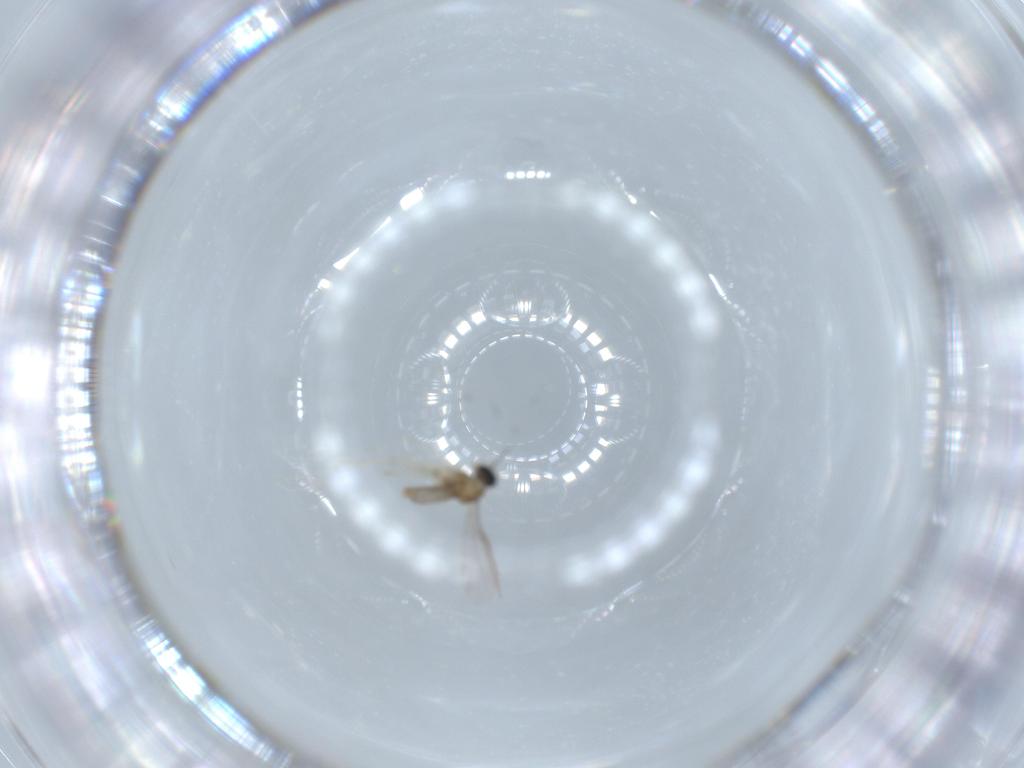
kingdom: Animalia
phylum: Arthropoda
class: Insecta
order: Diptera
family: Cecidomyiidae
